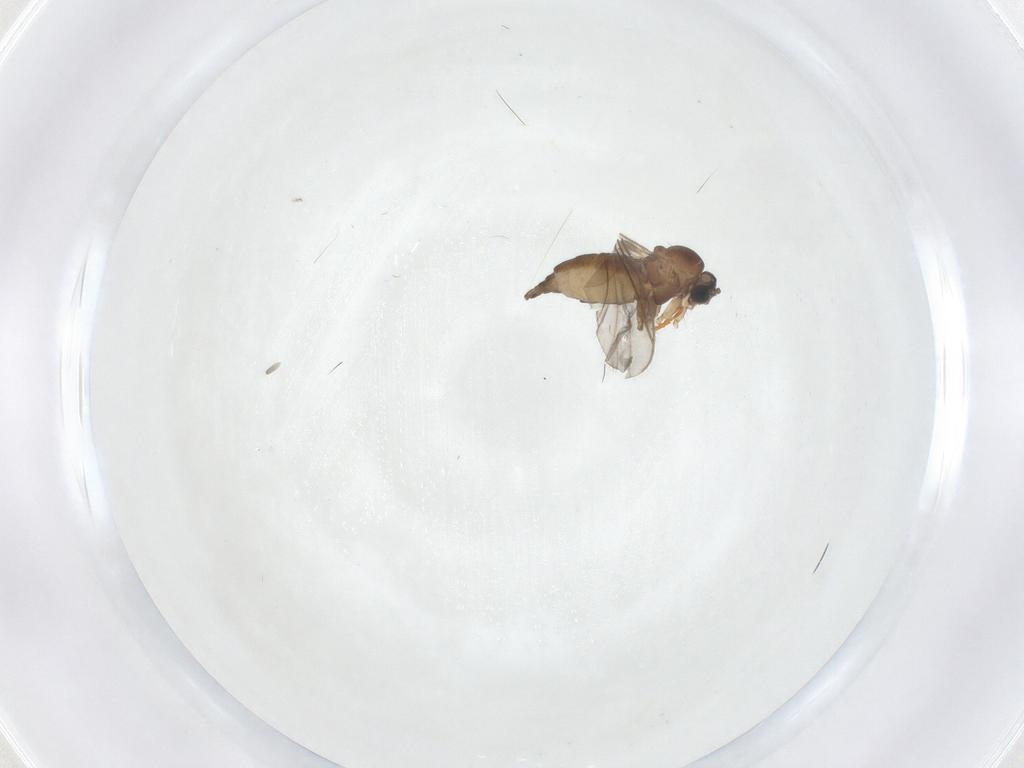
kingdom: Animalia
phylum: Arthropoda
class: Insecta
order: Diptera
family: Sciaridae
